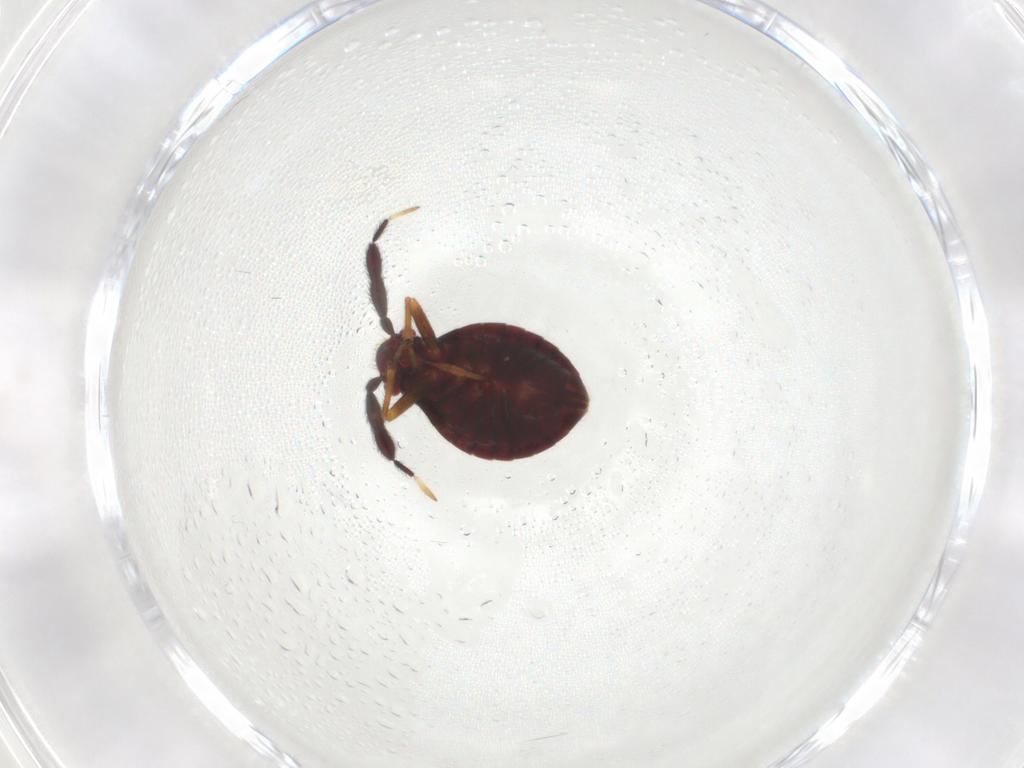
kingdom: Animalia
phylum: Arthropoda
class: Insecta
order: Hemiptera
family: Miridae
